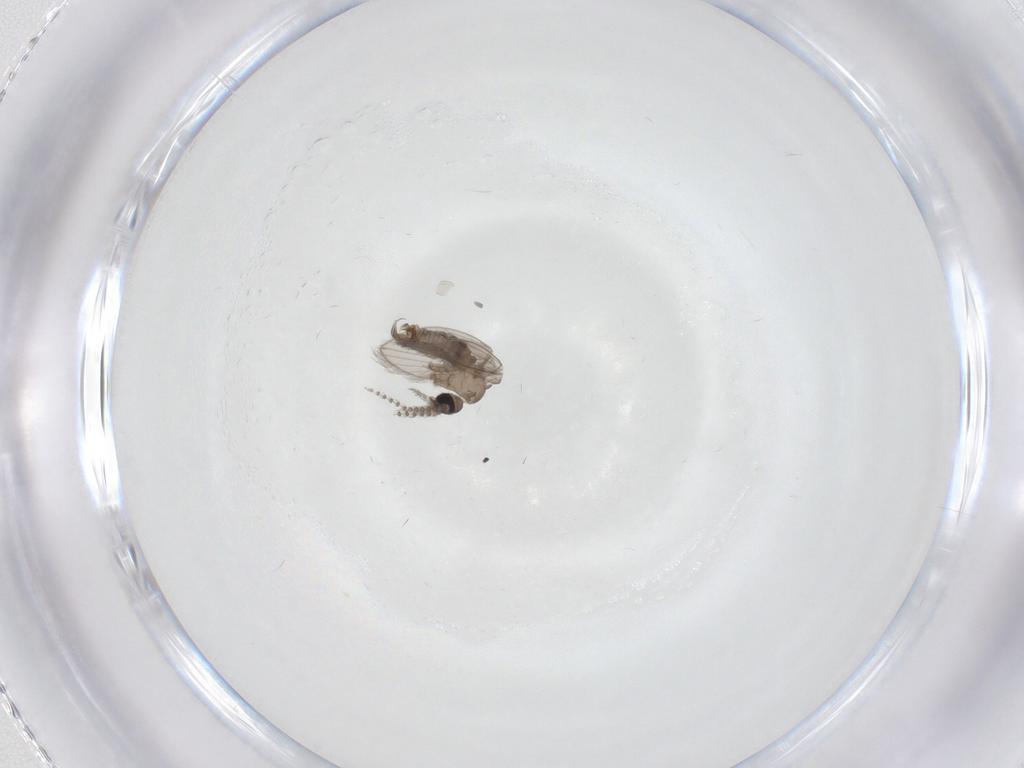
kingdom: Animalia
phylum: Arthropoda
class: Insecta
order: Diptera
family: Psychodidae
